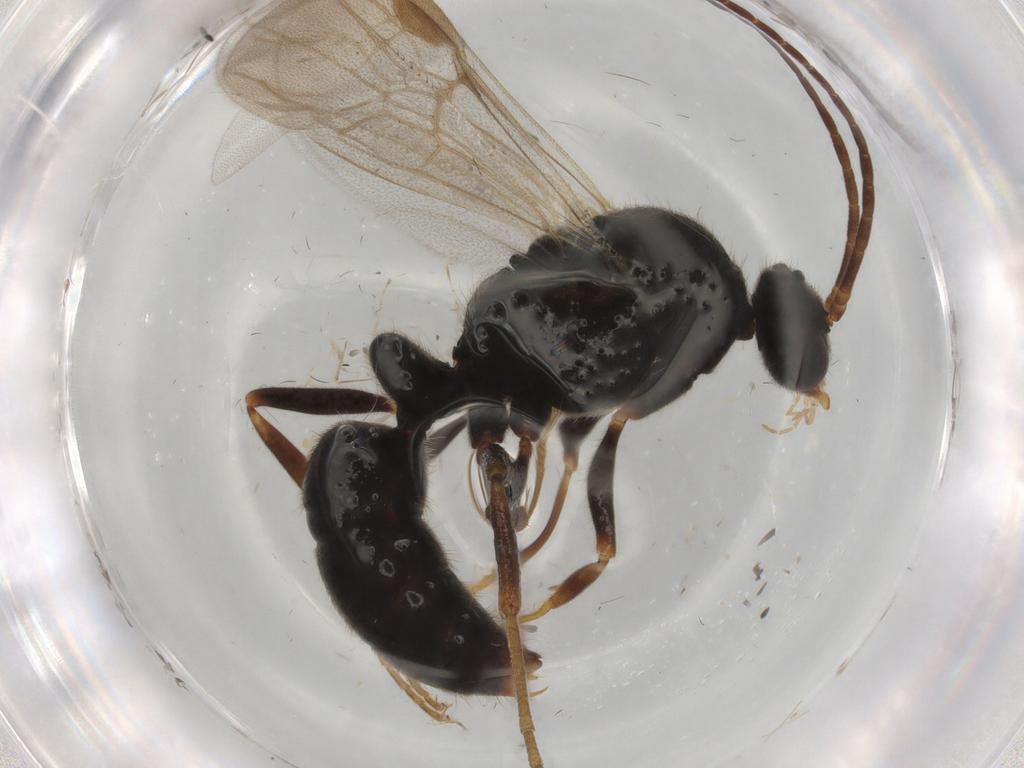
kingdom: Animalia
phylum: Arthropoda
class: Insecta
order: Hymenoptera
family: Formicidae
